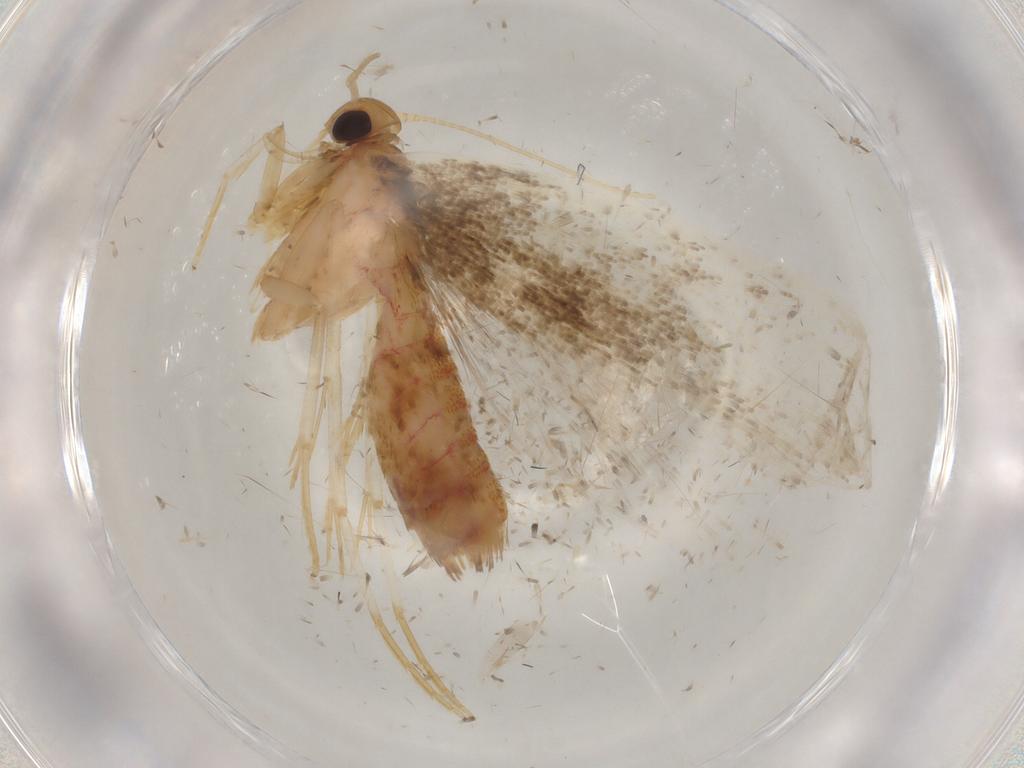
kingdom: Animalia
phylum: Arthropoda
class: Insecta
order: Lepidoptera
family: Lecithoceridae
